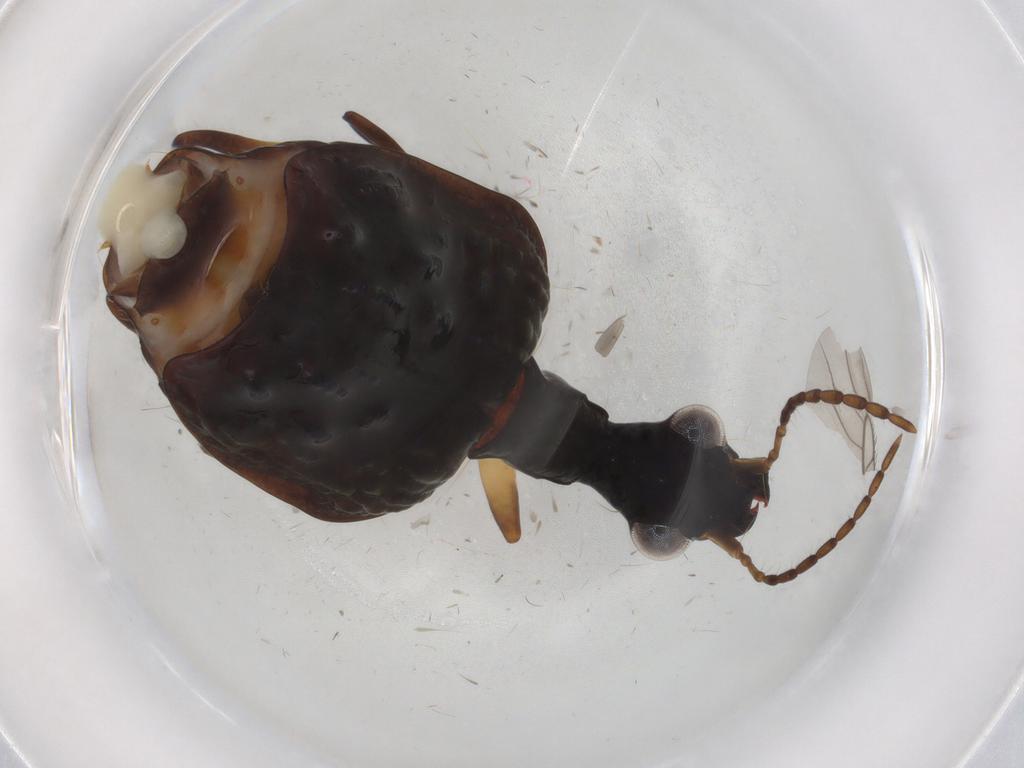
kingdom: Animalia
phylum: Arthropoda
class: Insecta
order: Coleoptera
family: Carabidae
